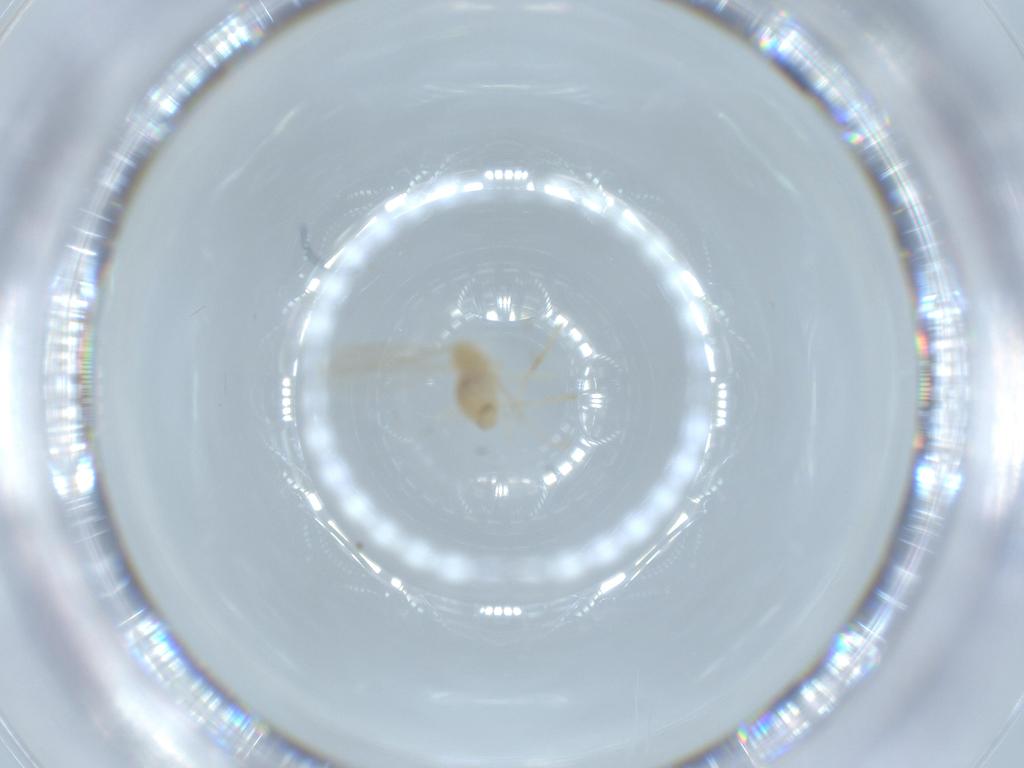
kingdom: Animalia
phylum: Arthropoda
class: Insecta
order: Diptera
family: Cecidomyiidae
